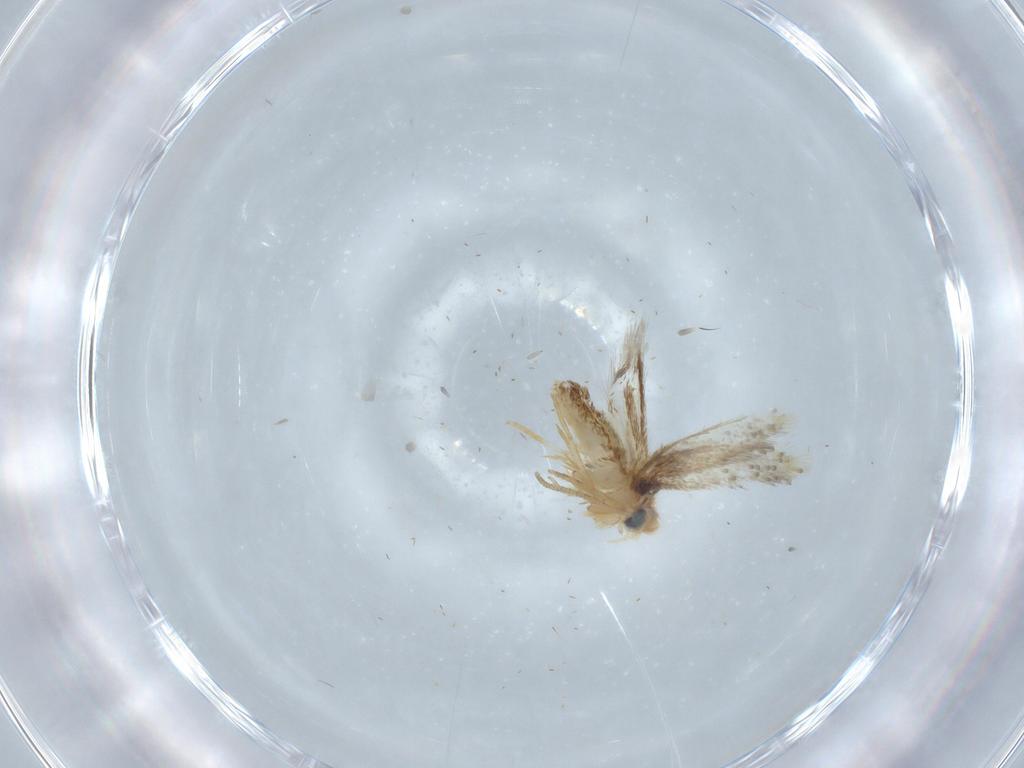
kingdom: Animalia
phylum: Arthropoda
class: Insecta
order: Lepidoptera
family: Nepticulidae
